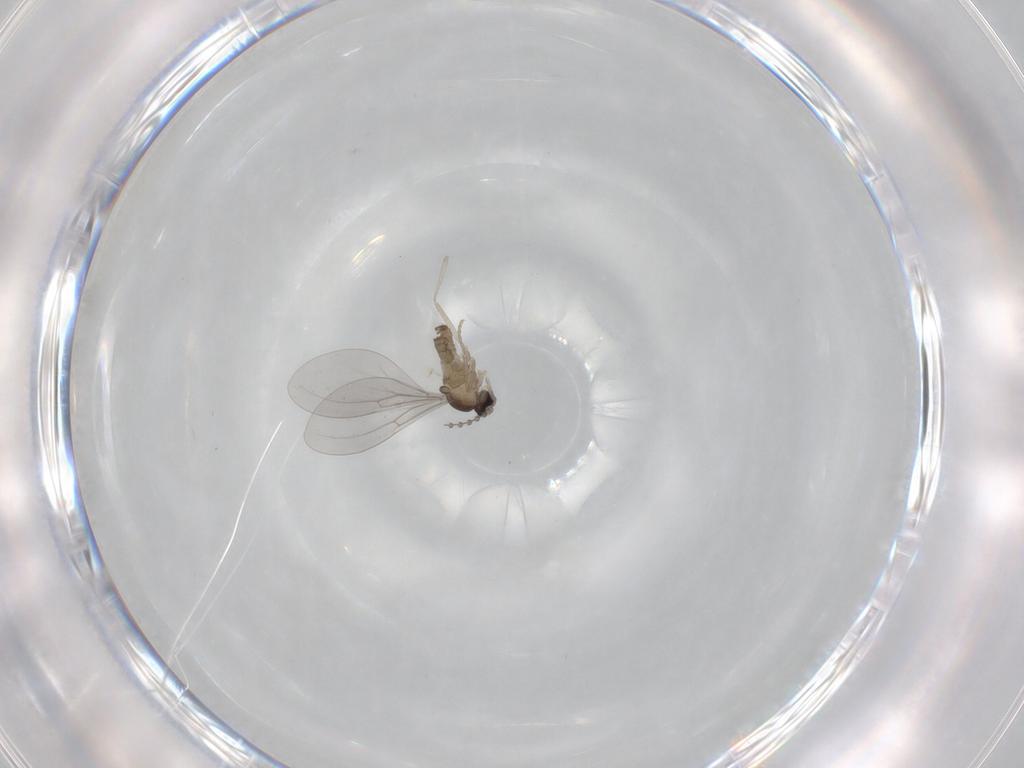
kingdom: Animalia
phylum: Arthropoda
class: Insecta
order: Diptera
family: Cecidomyiidae
